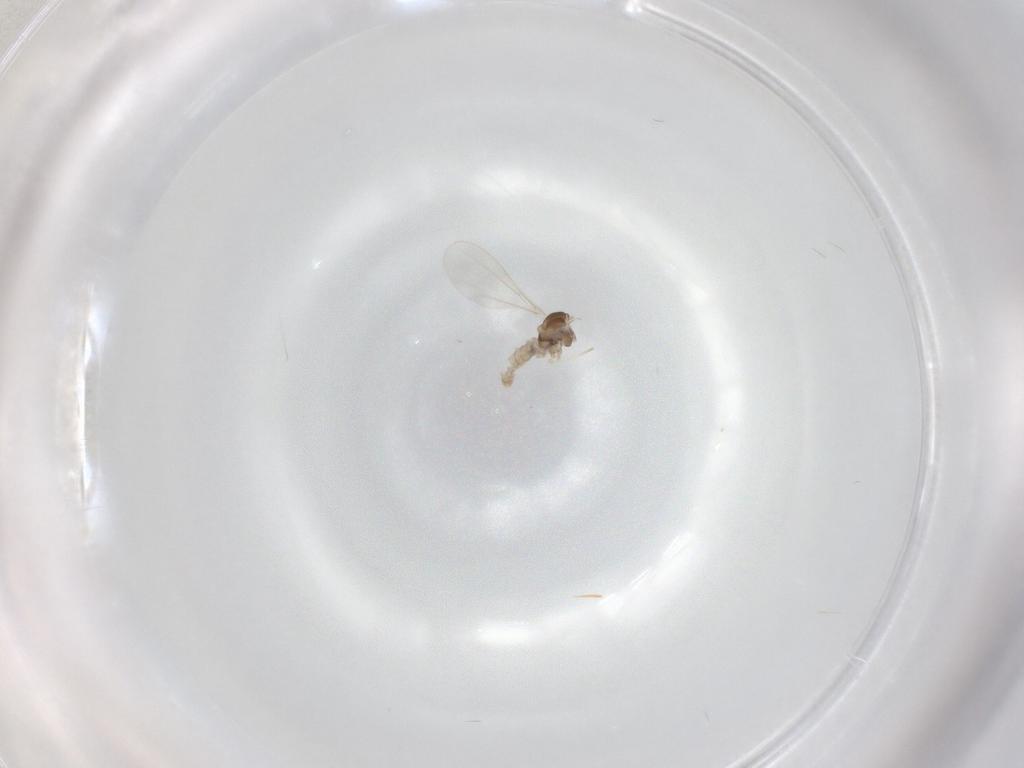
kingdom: Animalia
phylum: Arthropoda
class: Insecta
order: Diptera
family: Cecidomyiidae
